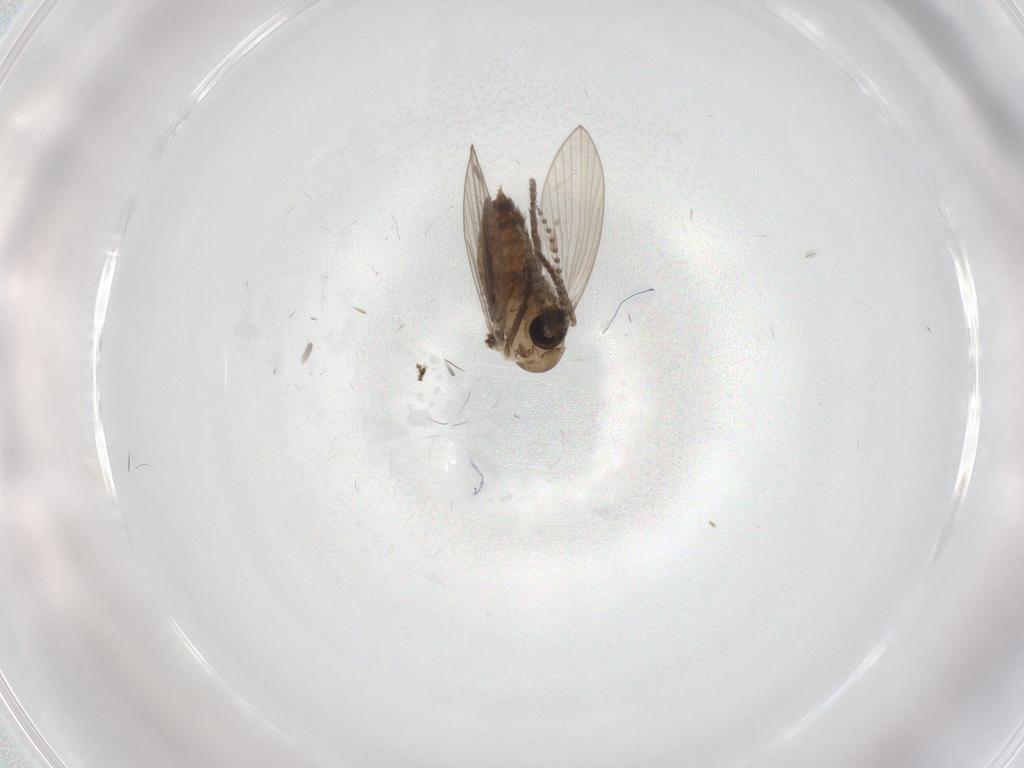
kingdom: Animalia
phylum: Arthropoda
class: Insecta
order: Diptera
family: Psychodidae
